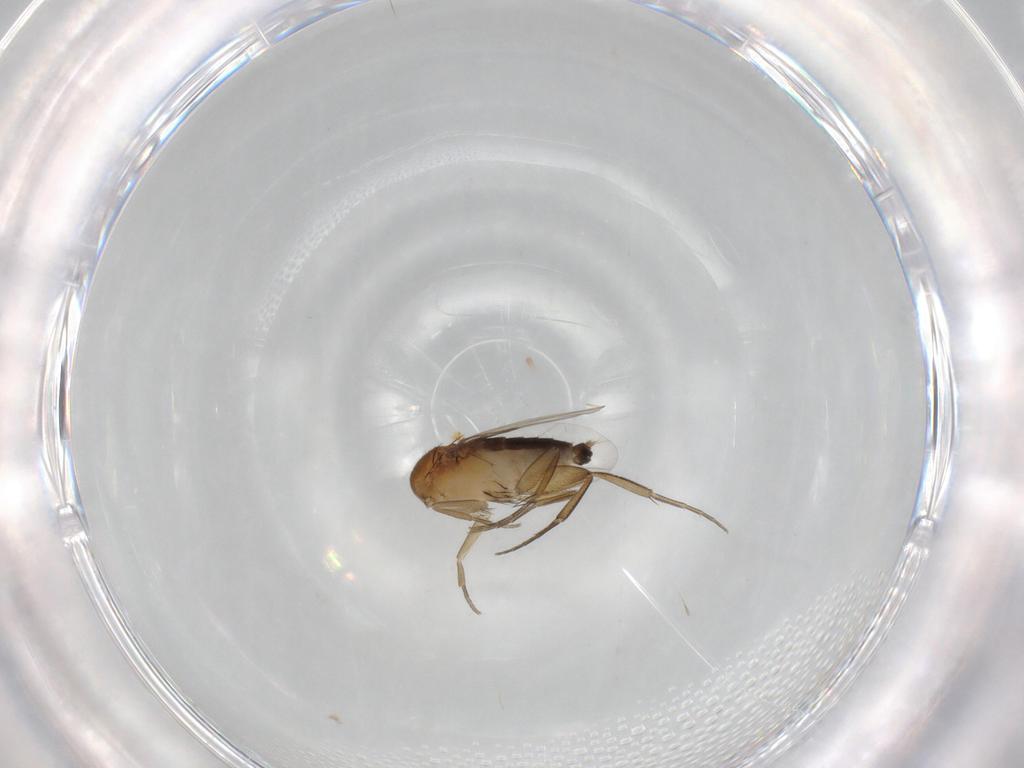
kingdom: Animalia
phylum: Arthropoda
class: Insecta
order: Diptera
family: Phoridae
